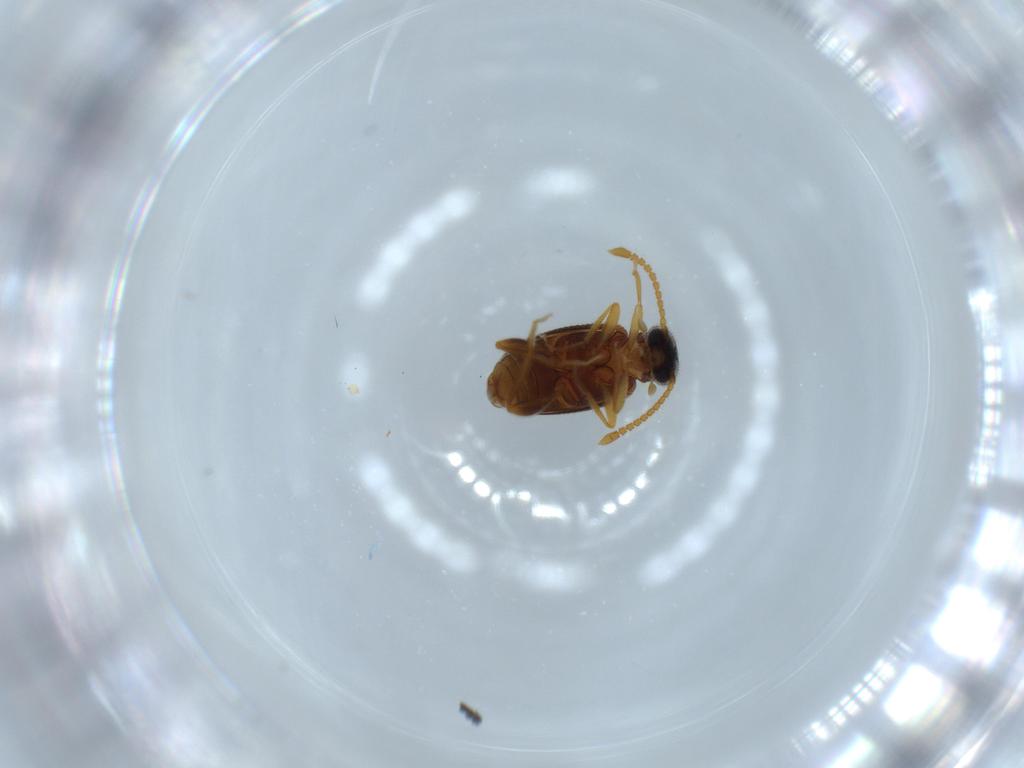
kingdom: Animalia
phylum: Arthropoda
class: Insecta
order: Coleoptera
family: Aderidae
